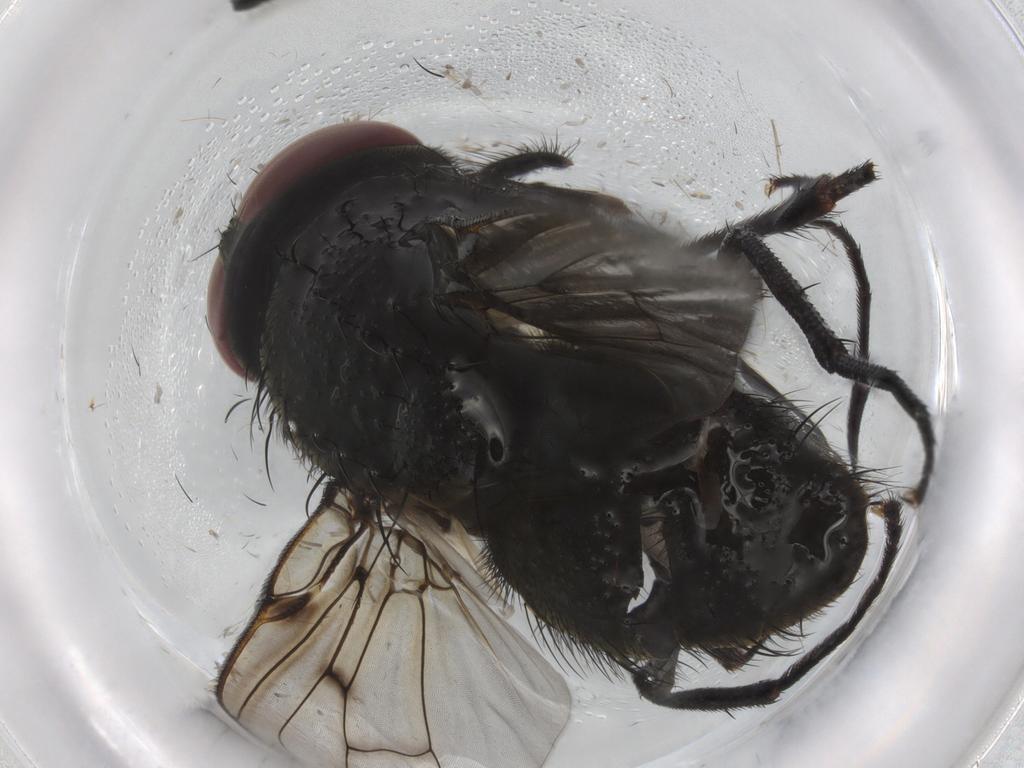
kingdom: Animalia
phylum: Arthropoda
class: Insecta
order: Diptera
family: Muscidae
